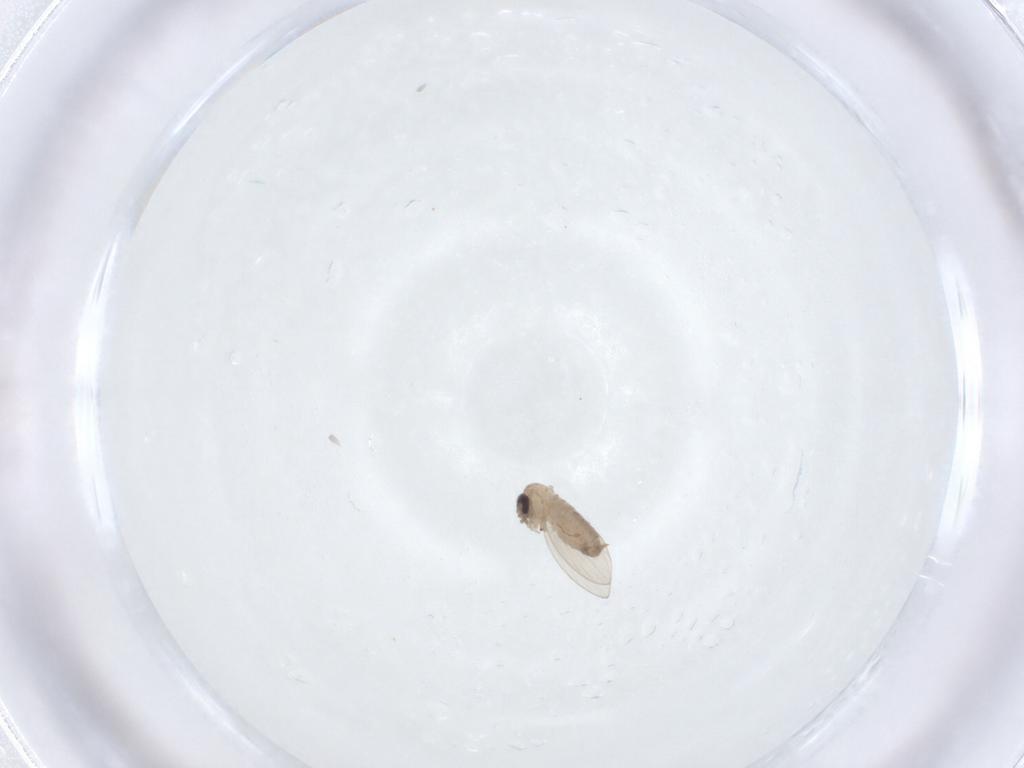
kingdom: Animalia
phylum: Arthropoda
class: Insecta
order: Diptera
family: Psychodidae
